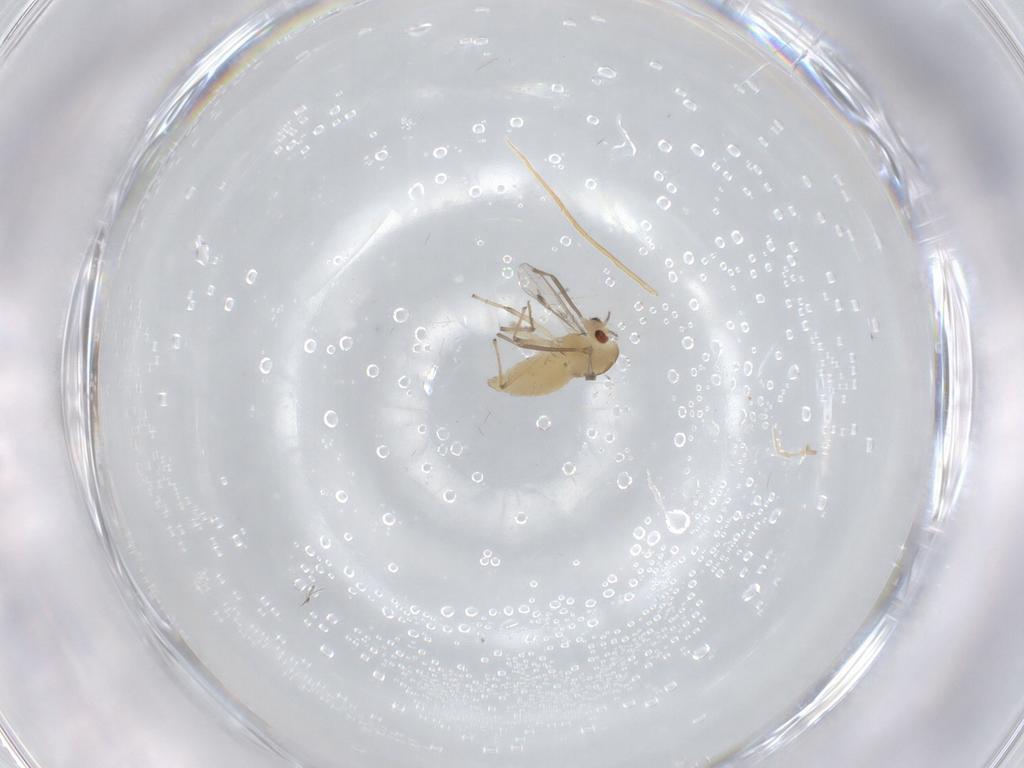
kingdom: Animalia
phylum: Arthropoda
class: Insecta
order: Diptera
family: Chironomidae
